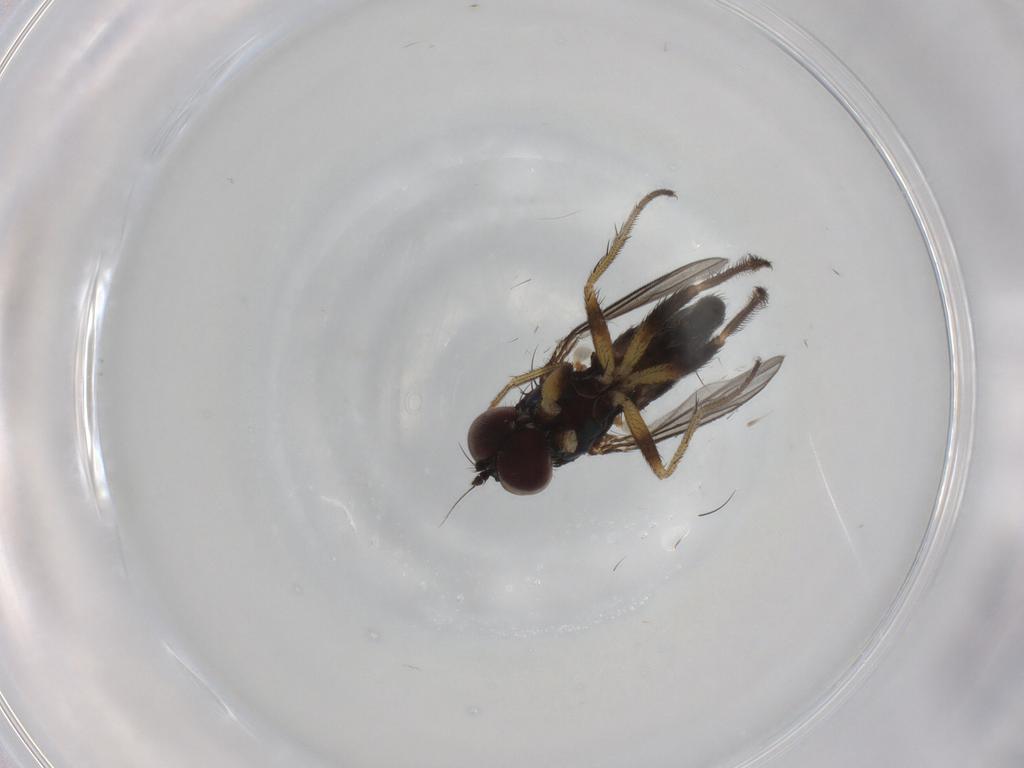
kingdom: Animalia
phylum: Arthropoda
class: Insecta
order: Diptera
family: Dolichopodidae
